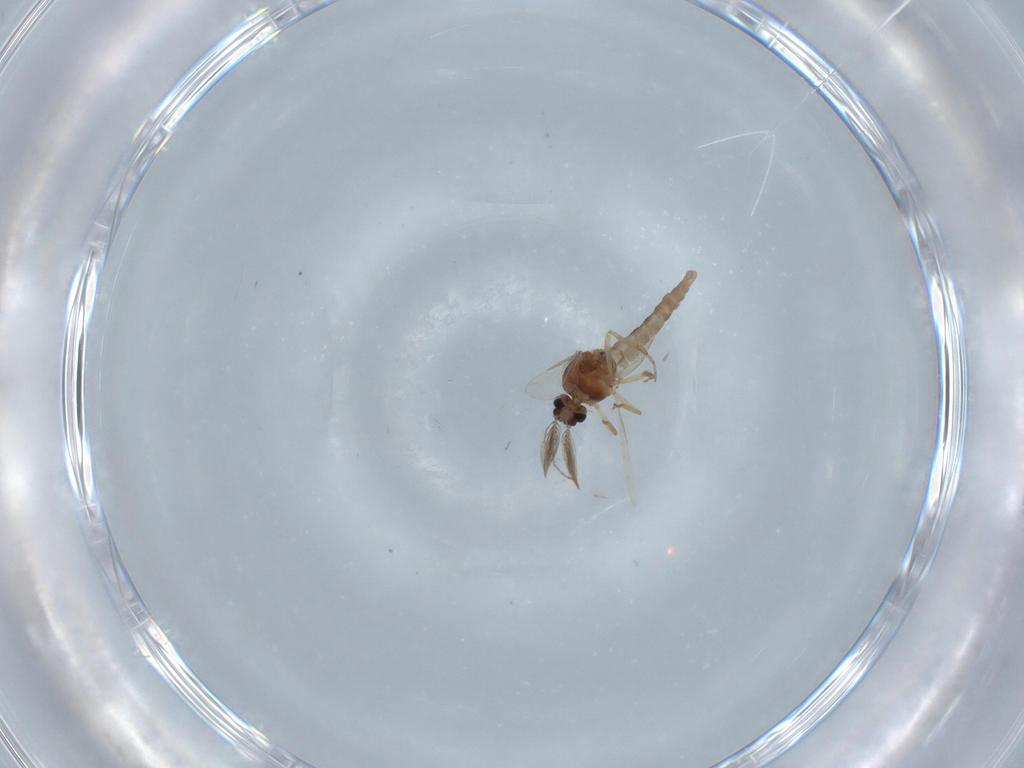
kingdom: Animalia
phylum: Arthropoda
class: Insecta
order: Diptera
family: Ceratopogonidae
